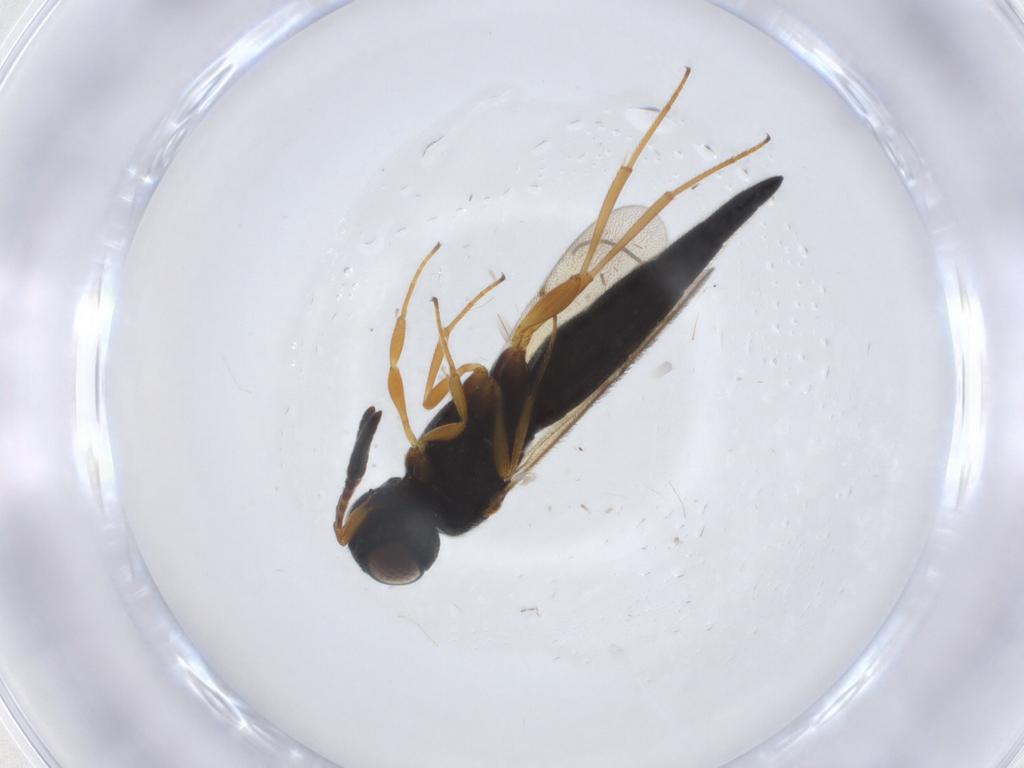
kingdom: Animalia
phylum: Arthropoda
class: Insecta
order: Hymenoptera
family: Scelionidae
